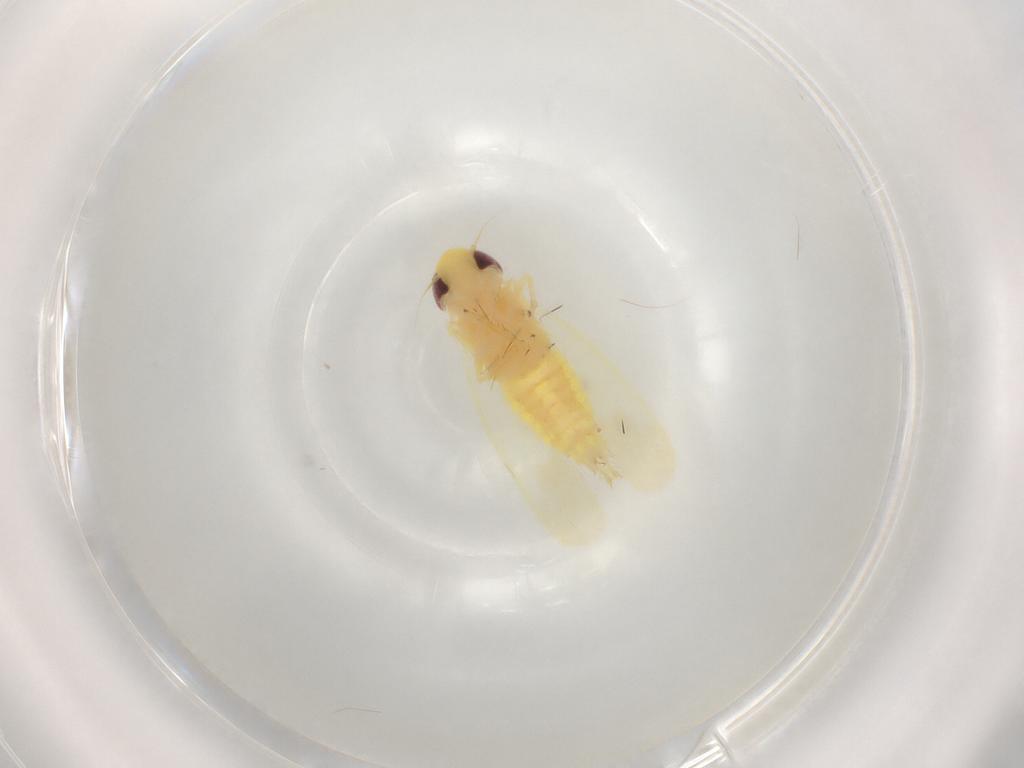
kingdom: Animalia
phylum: Arthropoda
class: Insecta
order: Hemiptera
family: Cicadellidae
